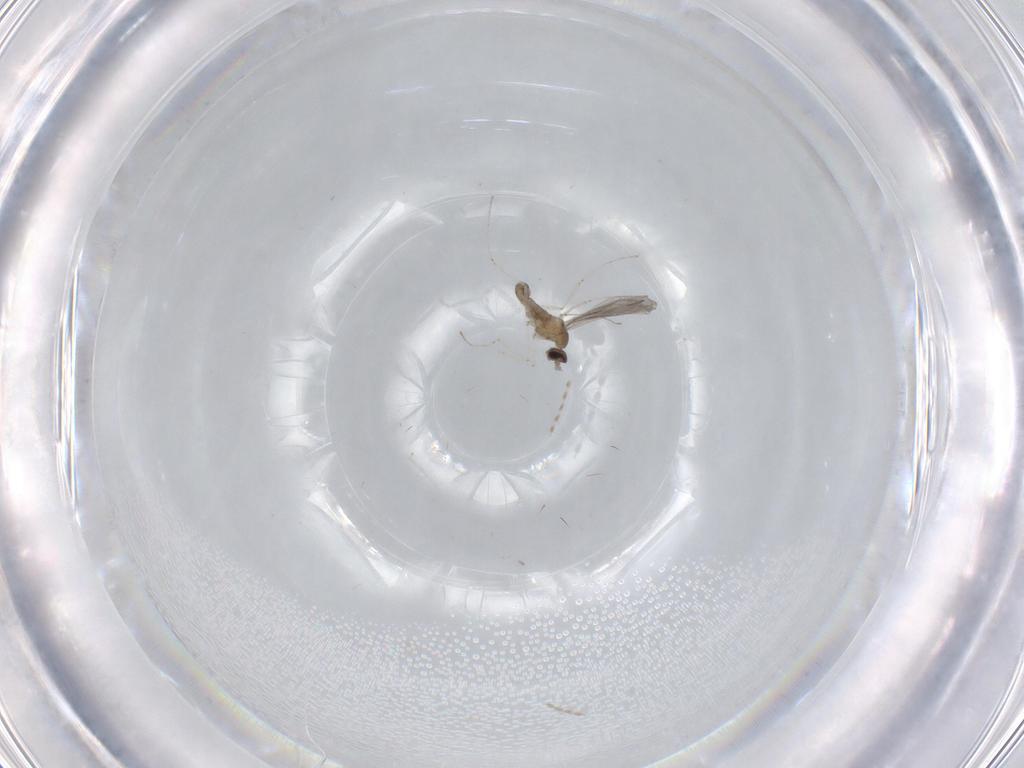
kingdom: Animalia
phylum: Arthropoda
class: Insecta
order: Diptera
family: Cecidomyiidae
